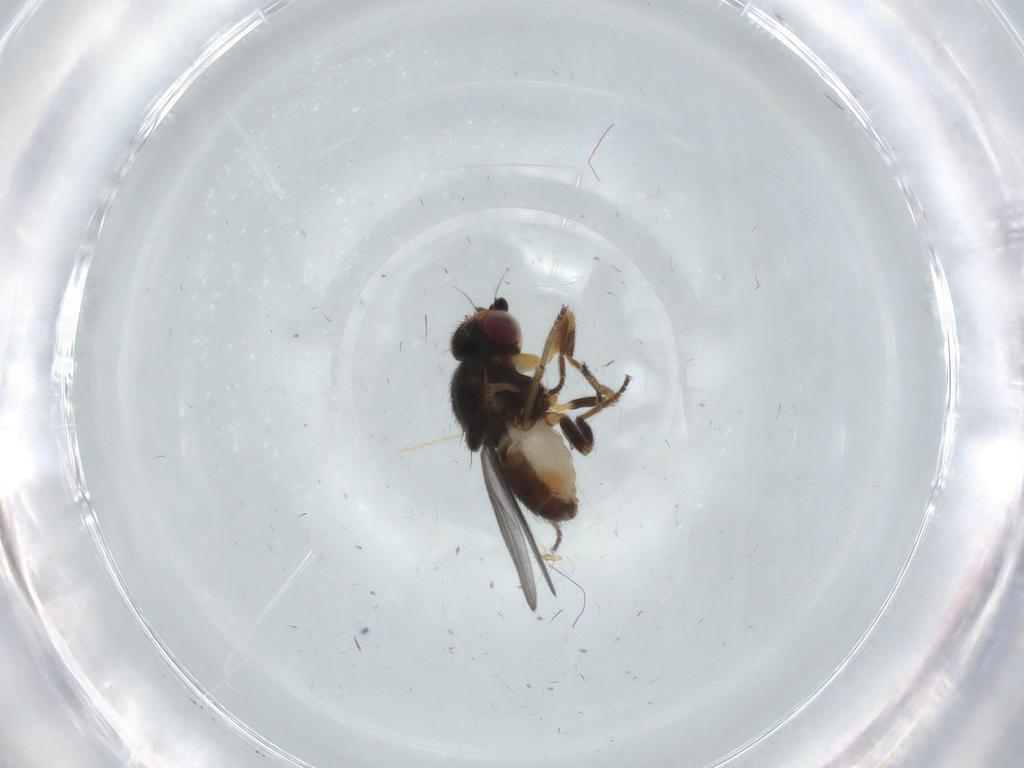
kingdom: Animalia
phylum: Arthropoda
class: Insecta
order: Diptera
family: Chloropidae
